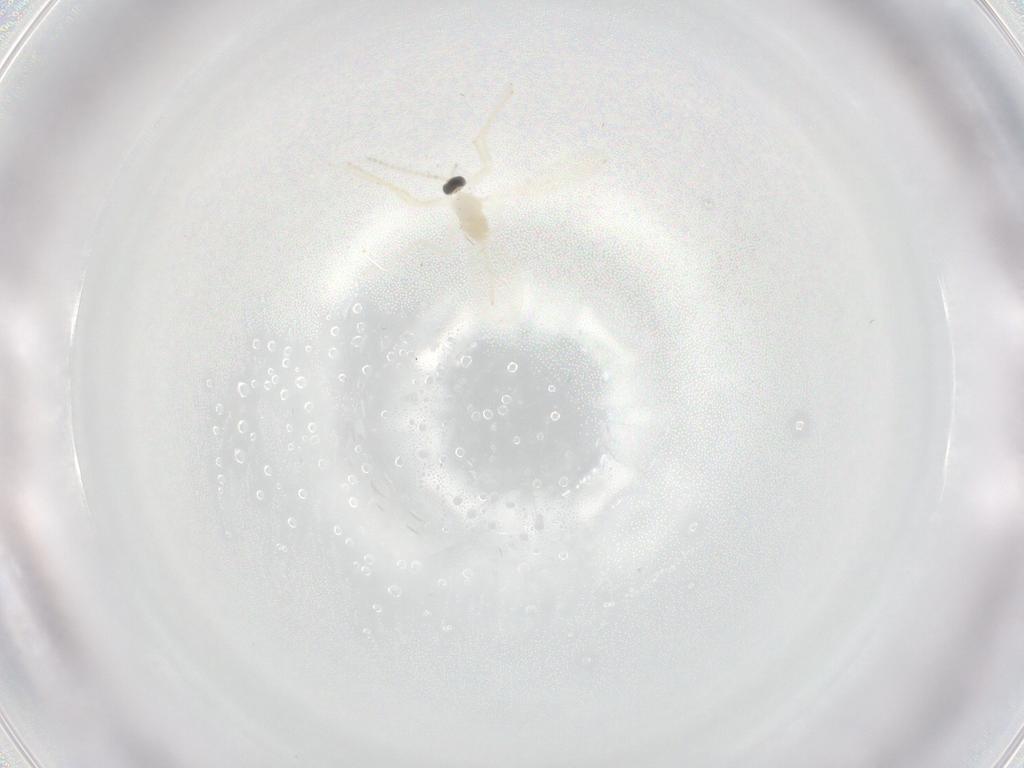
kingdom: Animalia
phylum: Arthropoda
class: Insecta
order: Diptera
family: Cecidomyiidae
